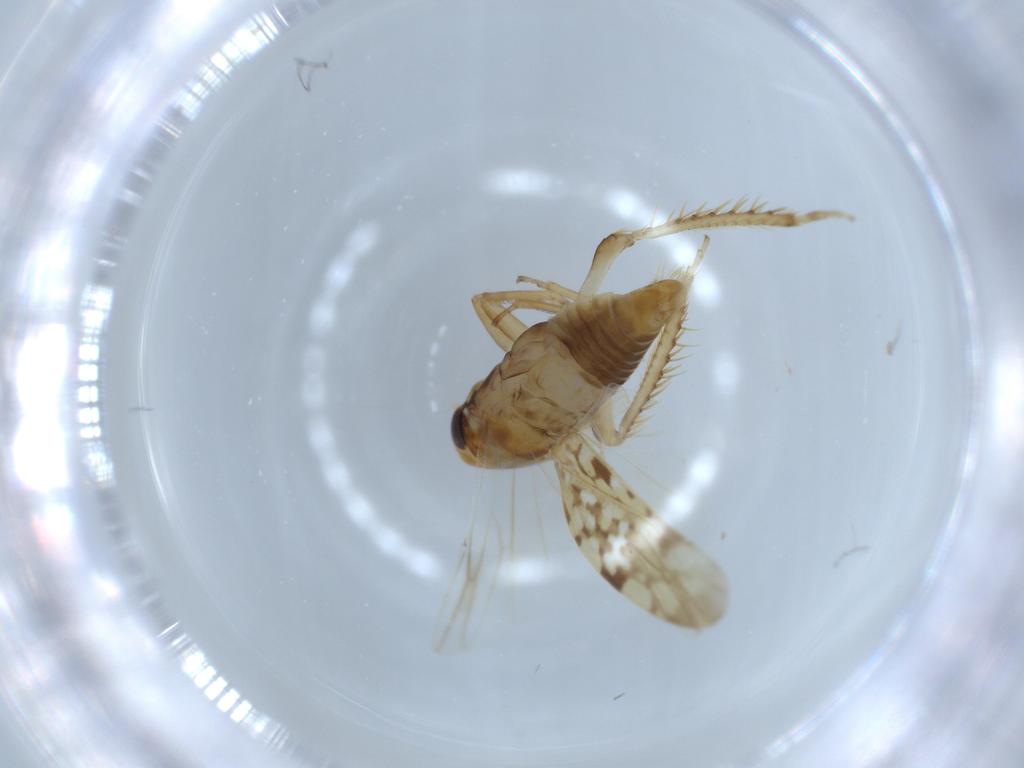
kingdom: Animalia
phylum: Arthropoda
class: Insecta
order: Hemiptera
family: Cicadellidae
